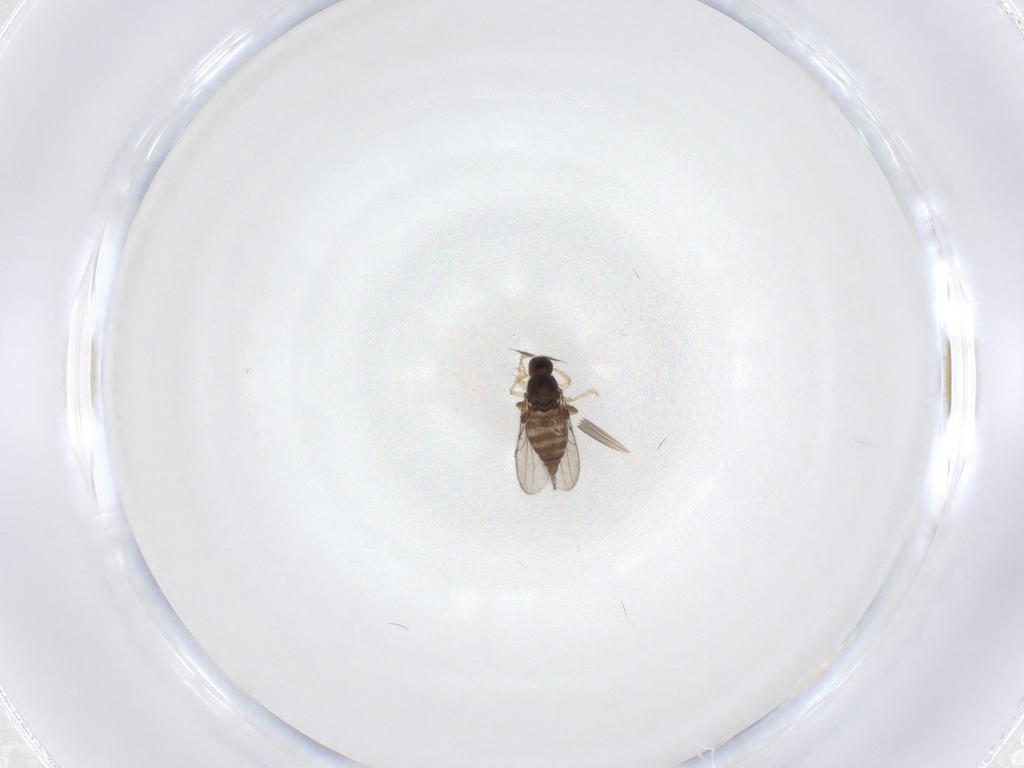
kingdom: Animalia
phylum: Arthropoda
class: Insecta
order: Diptera
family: Hybotidae
